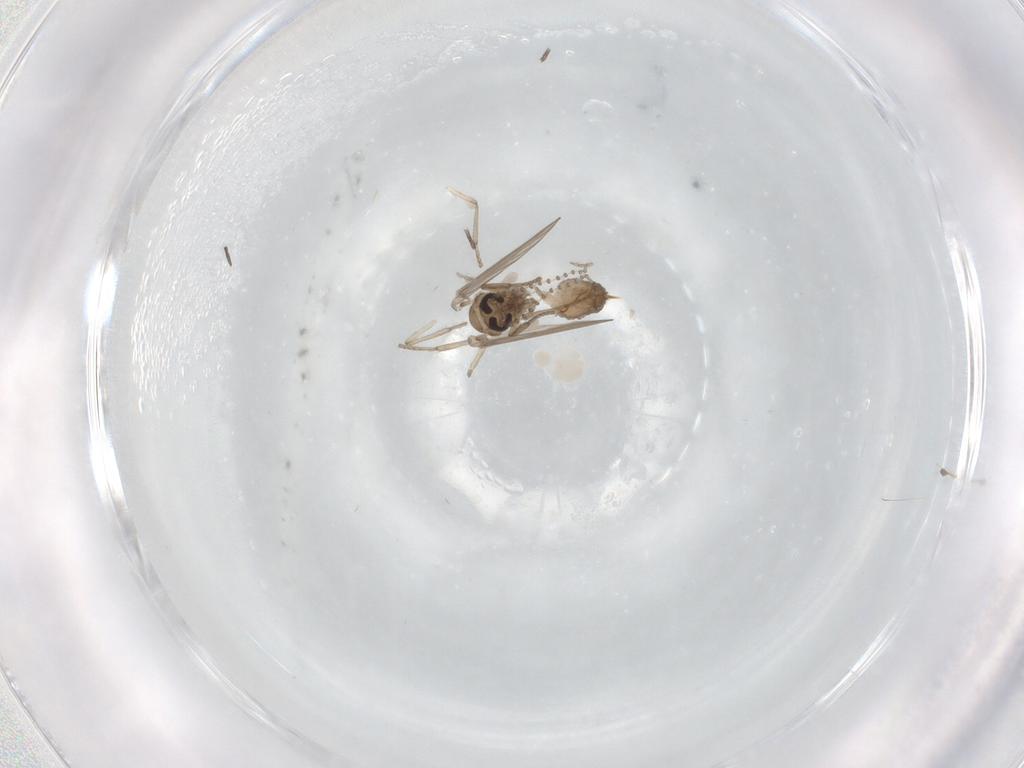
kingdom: Animalia
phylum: Arthropoda
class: Insecta
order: Diptera
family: Psychodidae
